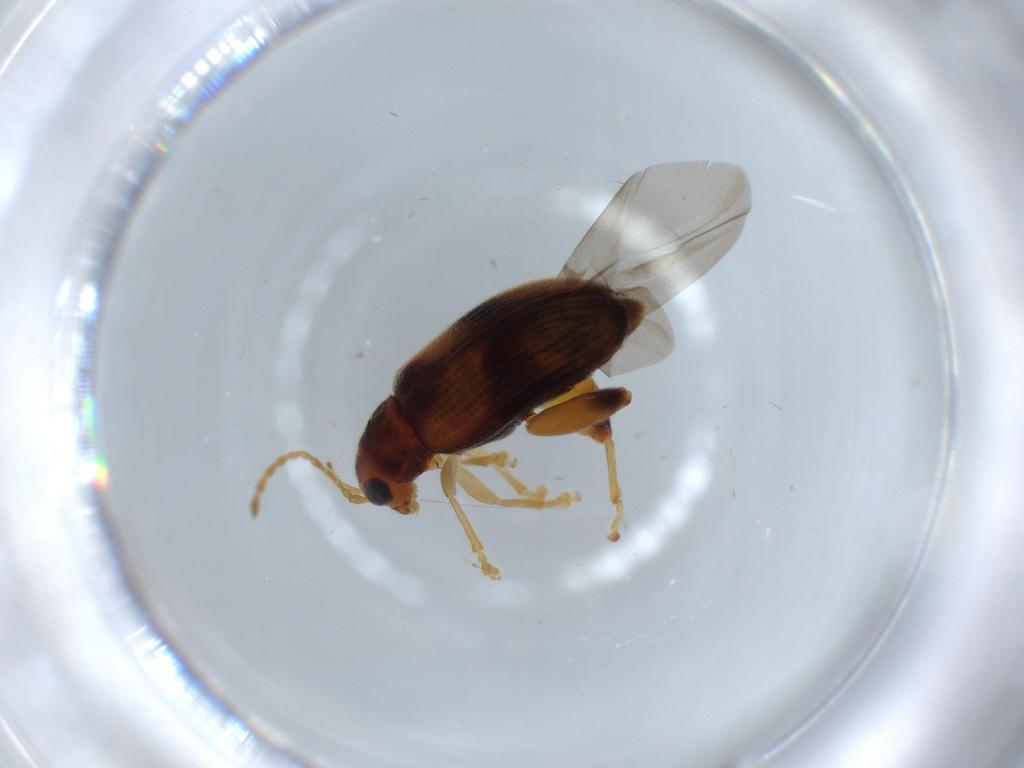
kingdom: Animalia
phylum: Arthropoda
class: Insecta
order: Coleoptera
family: Chrysomelidae
